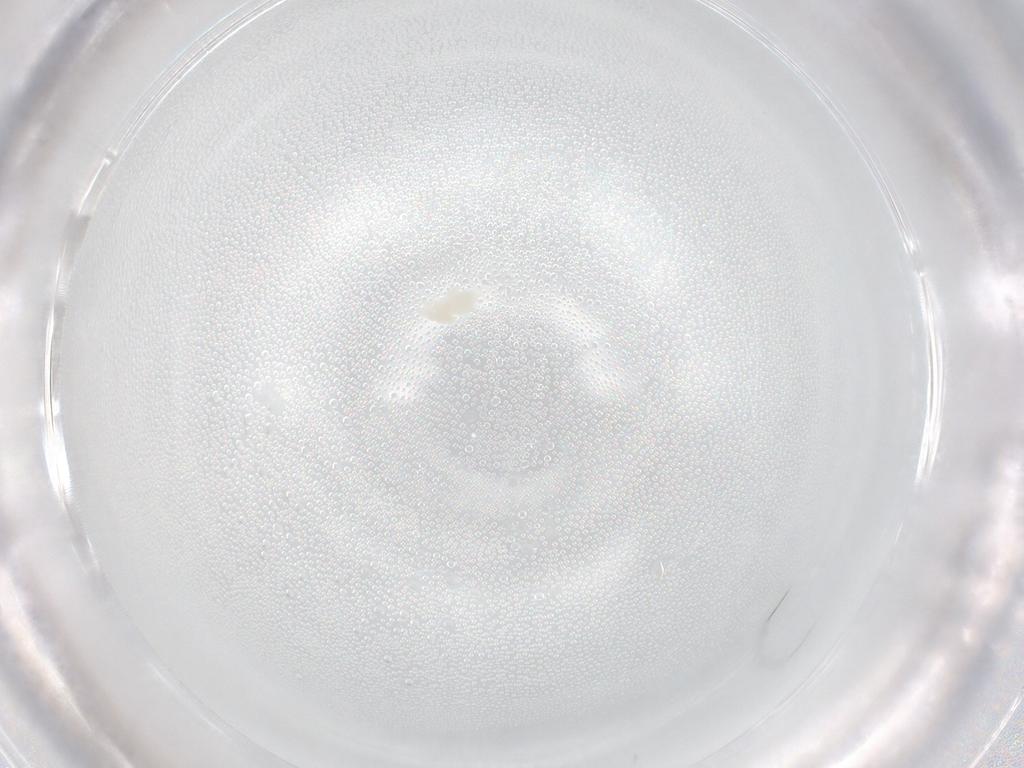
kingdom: Animalia
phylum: Arthropoda
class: Arachnida
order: Trombidiformes
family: Eupodidae
